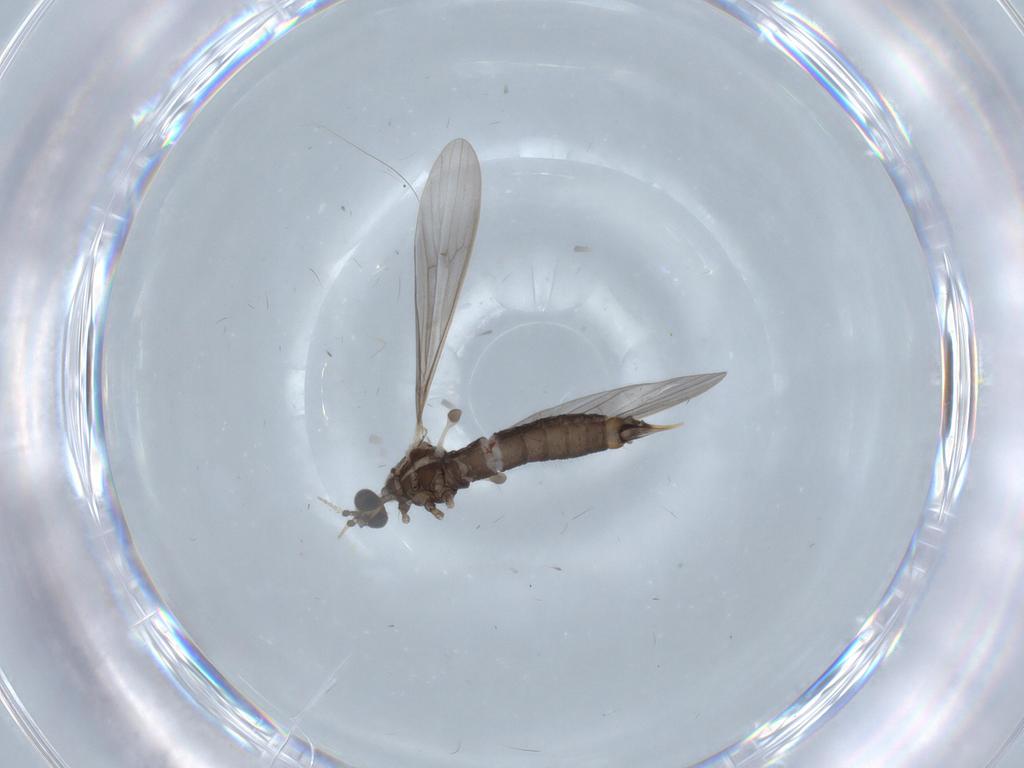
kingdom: Animalia
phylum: Arthropoda
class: Insecta
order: Diptera
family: Limoniidae
